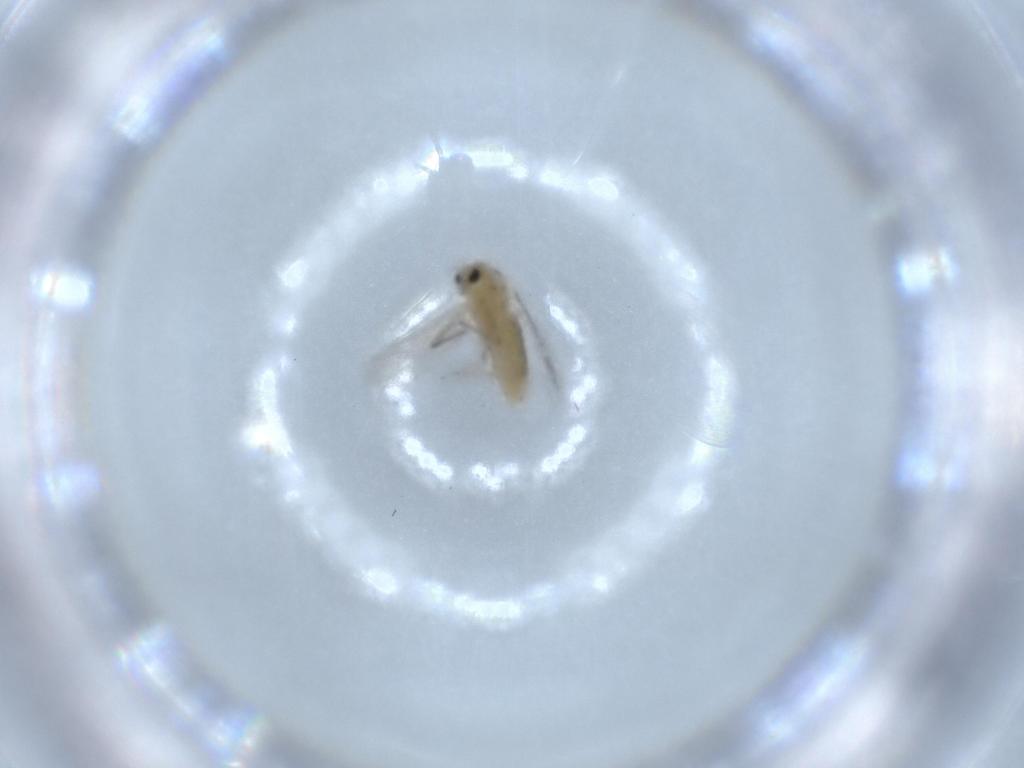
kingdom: Animalia
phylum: Arthropoda
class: Insecta
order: Diptera
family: Chironomidae
